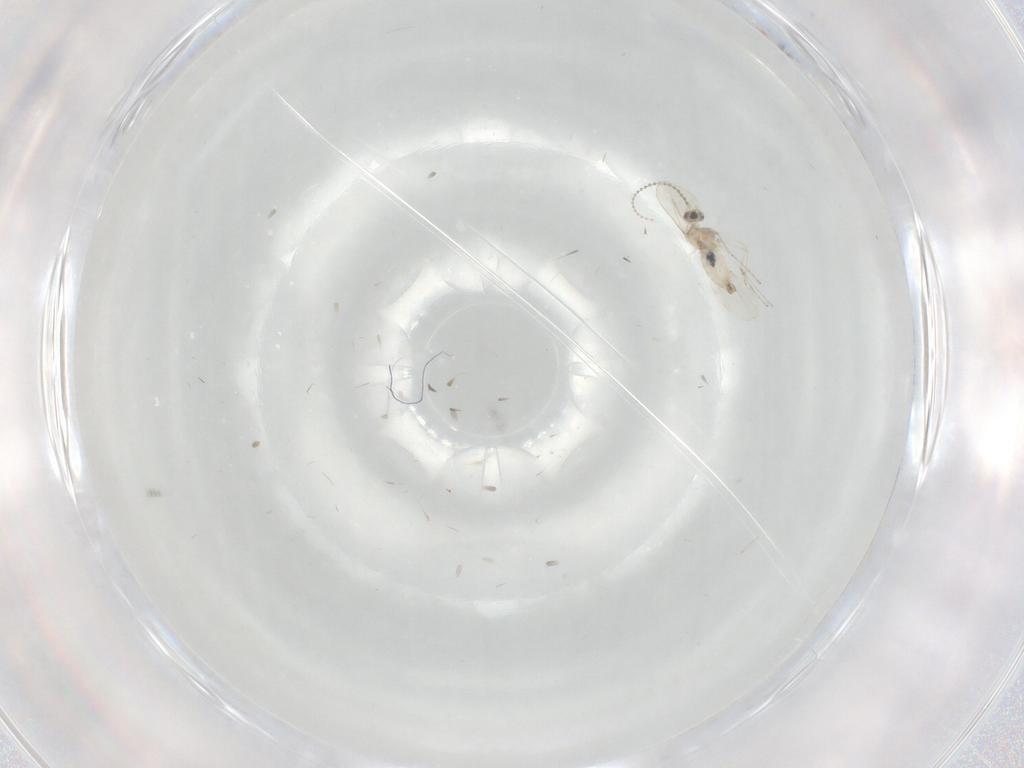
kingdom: Animalia
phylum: Arthropoda
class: Insecta
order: Diptera
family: Cecidomyiidae
